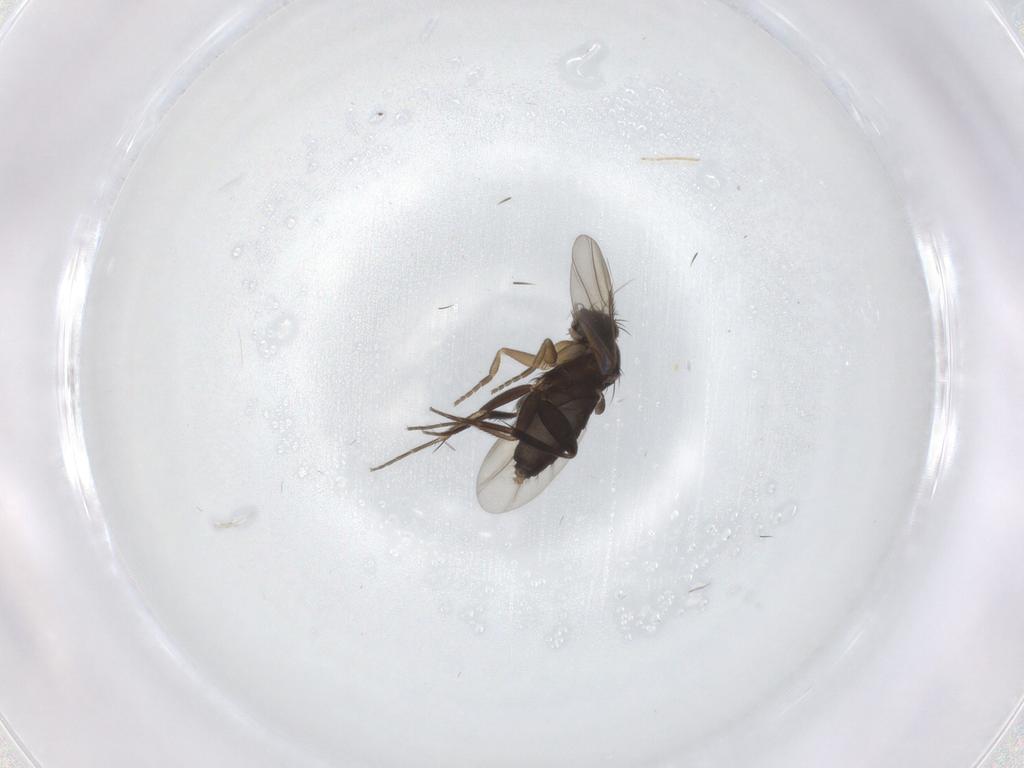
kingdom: Animalia
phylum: Arthropoda
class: Insecta
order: Diptera
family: Phoridae
